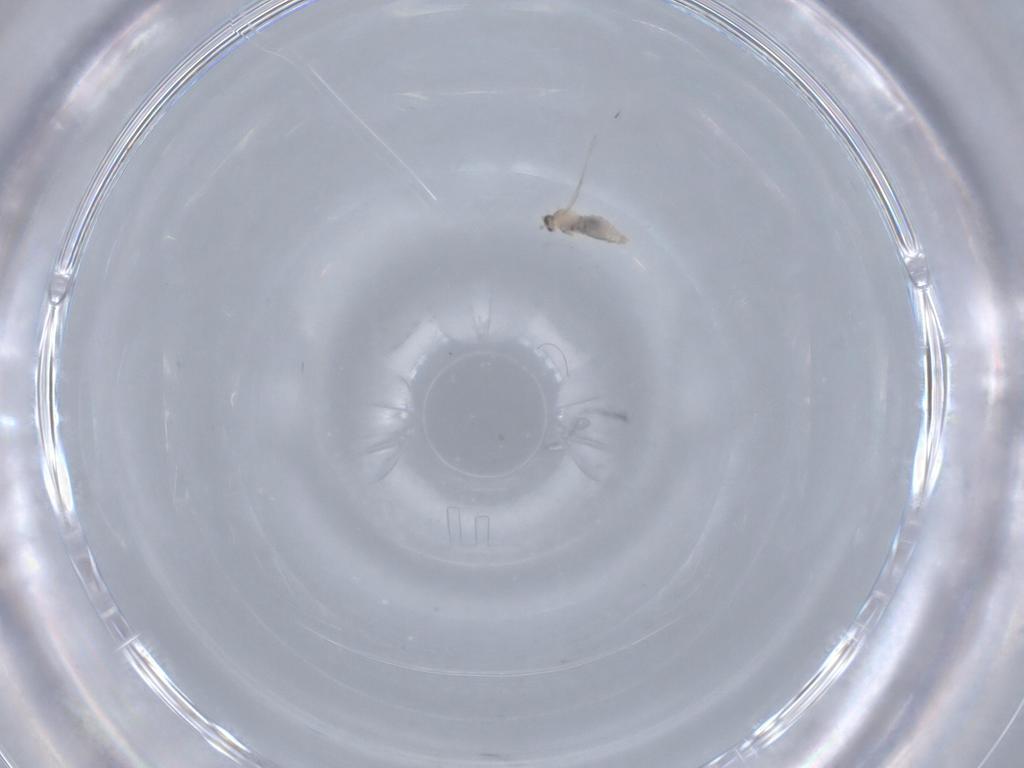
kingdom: Animalia
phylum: Arthropoda
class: Insecta
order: Diptera
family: Cecidomyiidae
